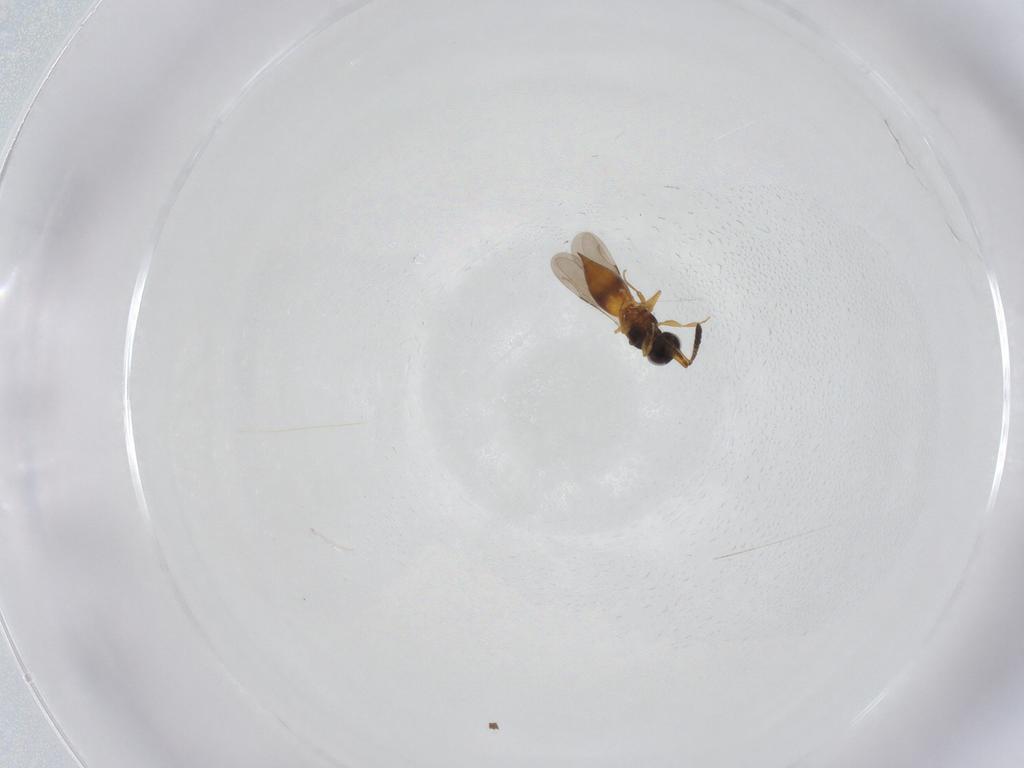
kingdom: Animalia
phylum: Arthropoda
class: Insecta
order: Hymenoptera
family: Ceraphronidae
